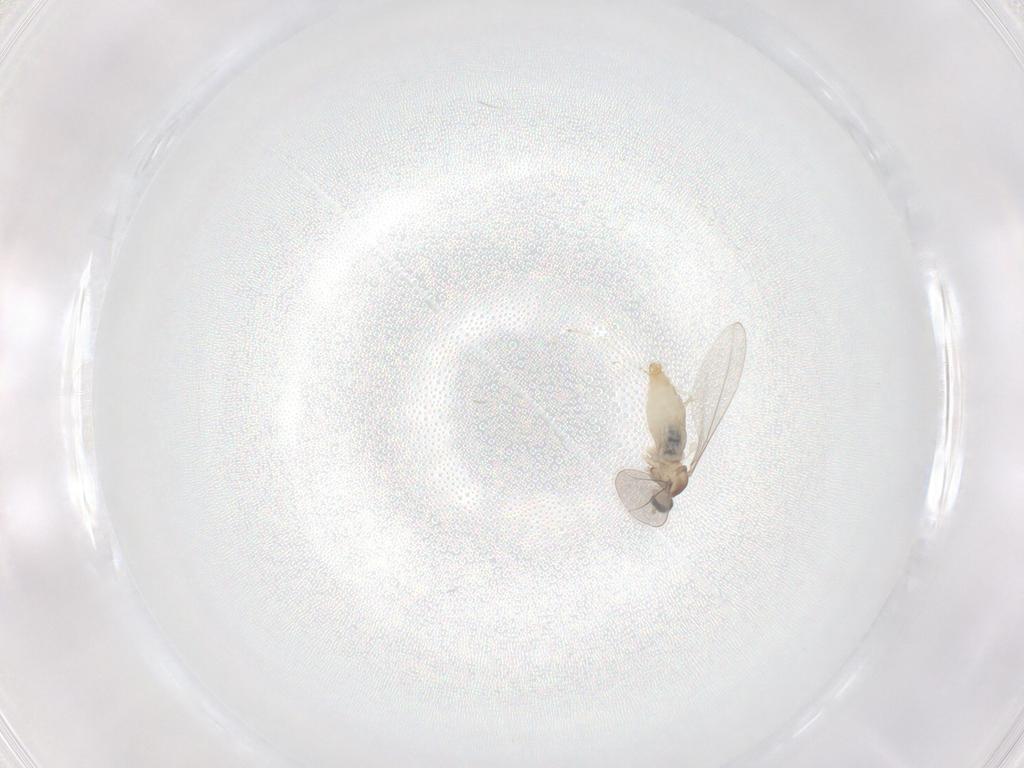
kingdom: Animalia
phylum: Arthropoda
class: Insecta
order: Diptera
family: Cecidomyiidae
